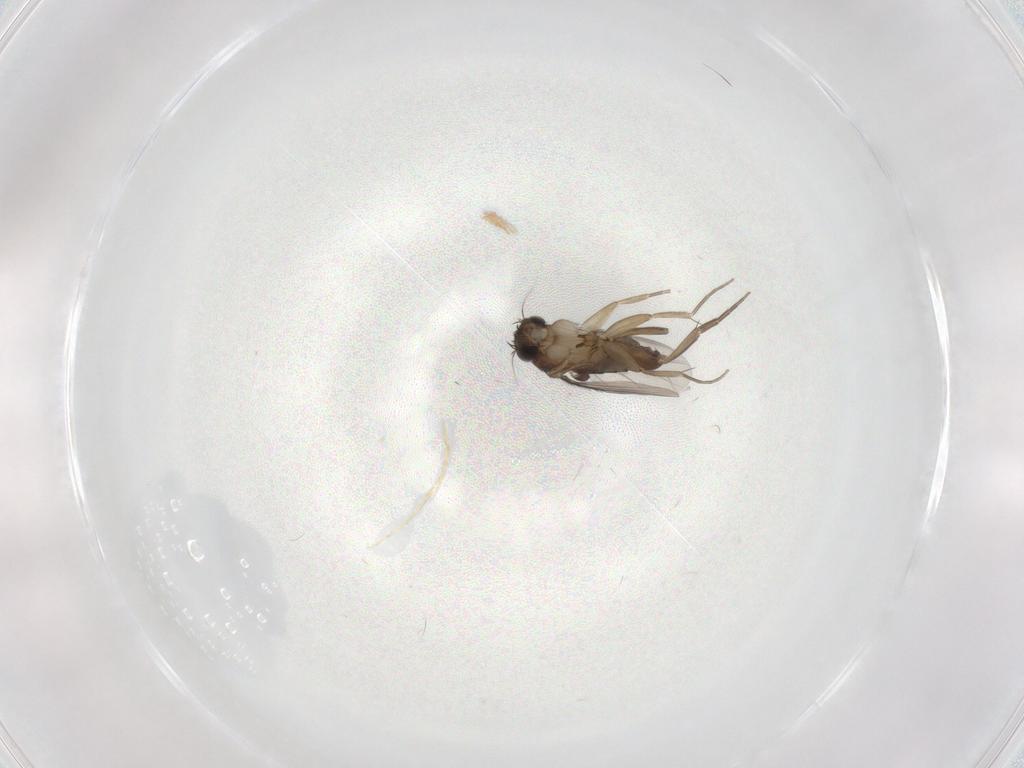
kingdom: Animalia
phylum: Arthropoda
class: Insecta
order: Diptera
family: Phoridae
